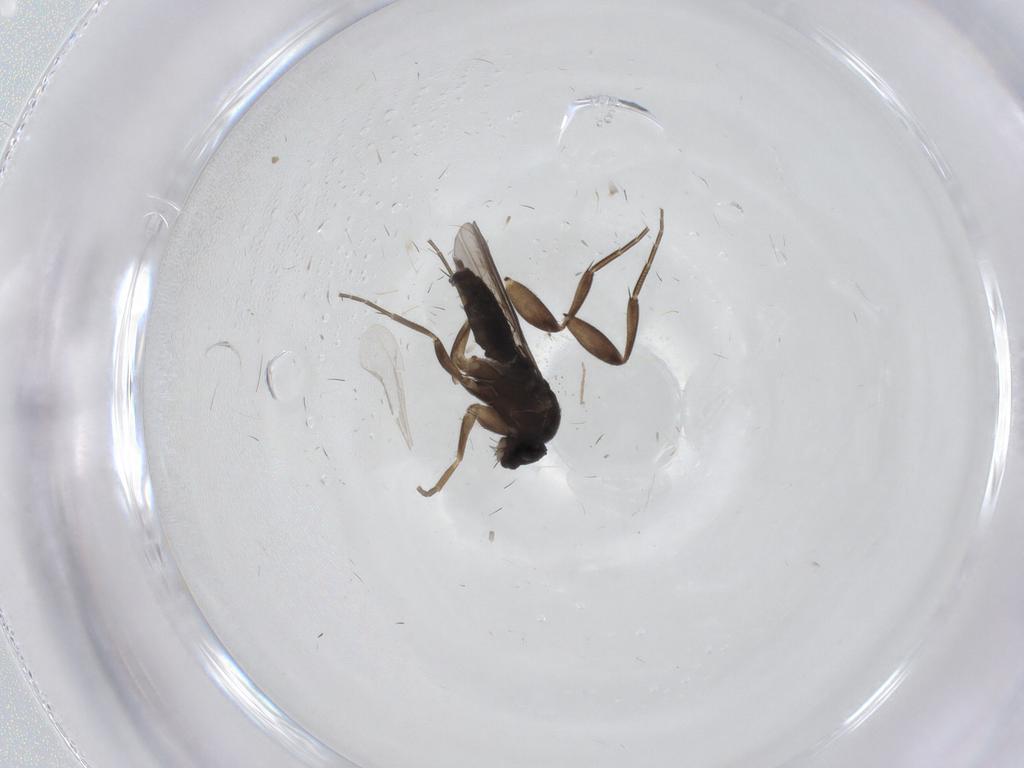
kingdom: Animalia
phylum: Arthropoda
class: Insecta
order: Diptera
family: Phoridae
